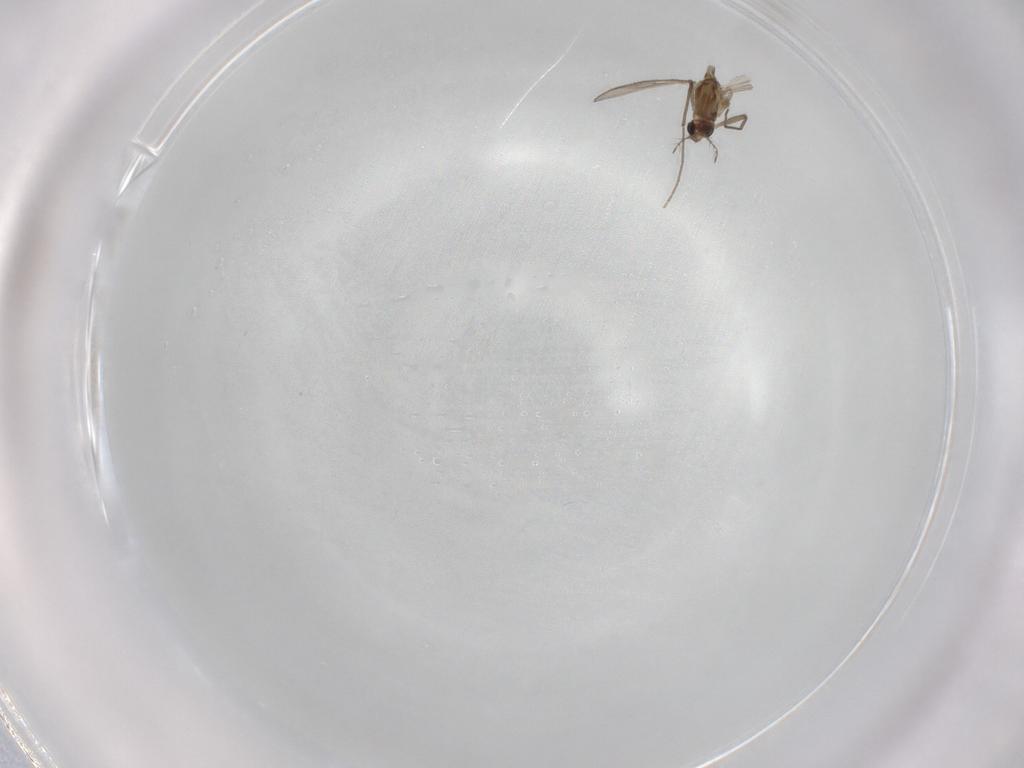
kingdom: Animalia
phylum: Arthropoda
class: Insecta
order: Diptera
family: Chironomidae
